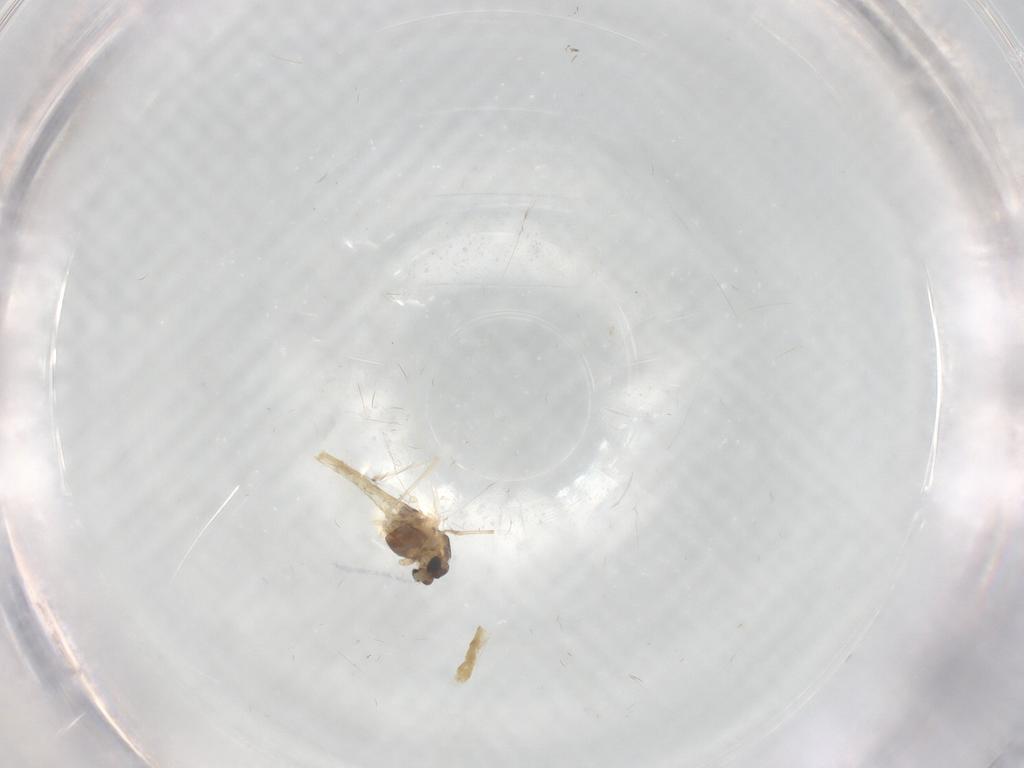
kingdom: Animalia
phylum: Arthropoda
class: Insecta
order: Diptera
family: Chironomidae
